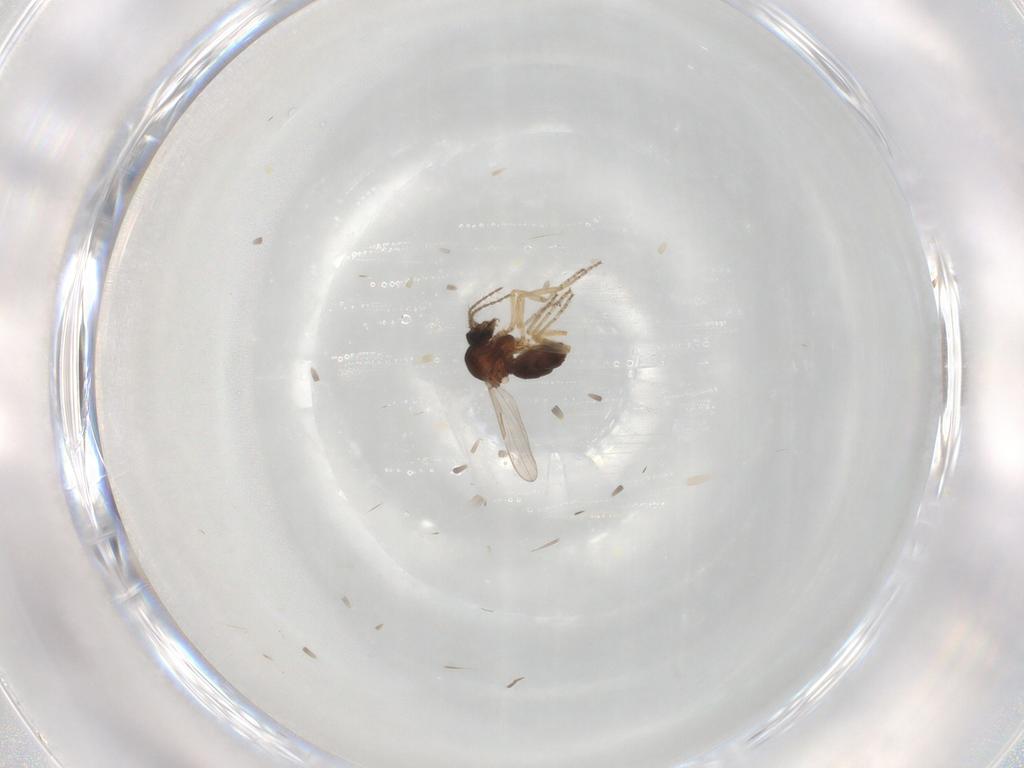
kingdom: Animalia
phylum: Arthropoda
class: Insecta
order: Diptera
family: Ceratopogonidae
